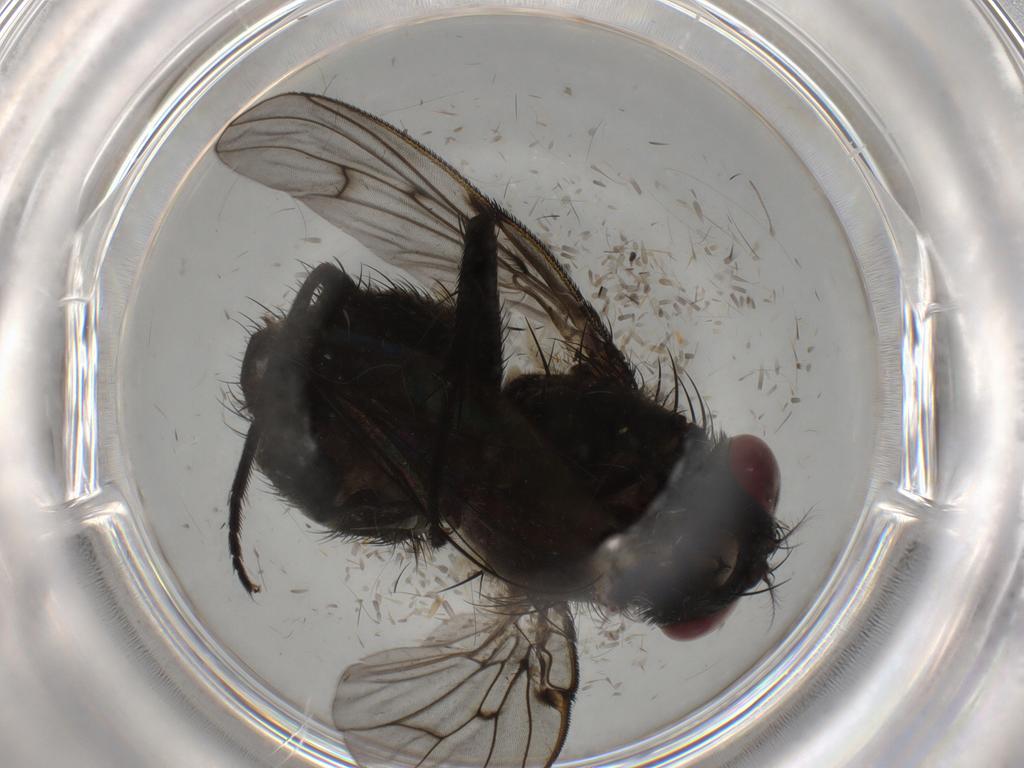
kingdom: Animalia
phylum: Arthropoda
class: Insecta
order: Diptera
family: Muscidae
